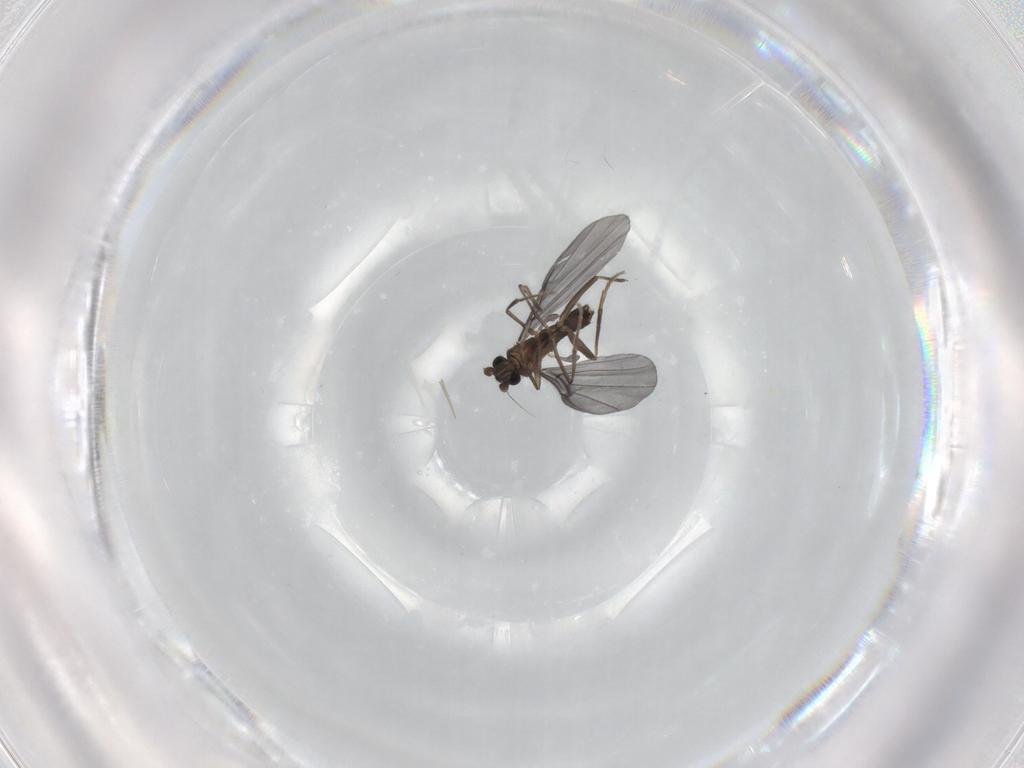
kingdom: Animalia
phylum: Arthropoda
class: Insecta
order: Diptera
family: Phoridae
